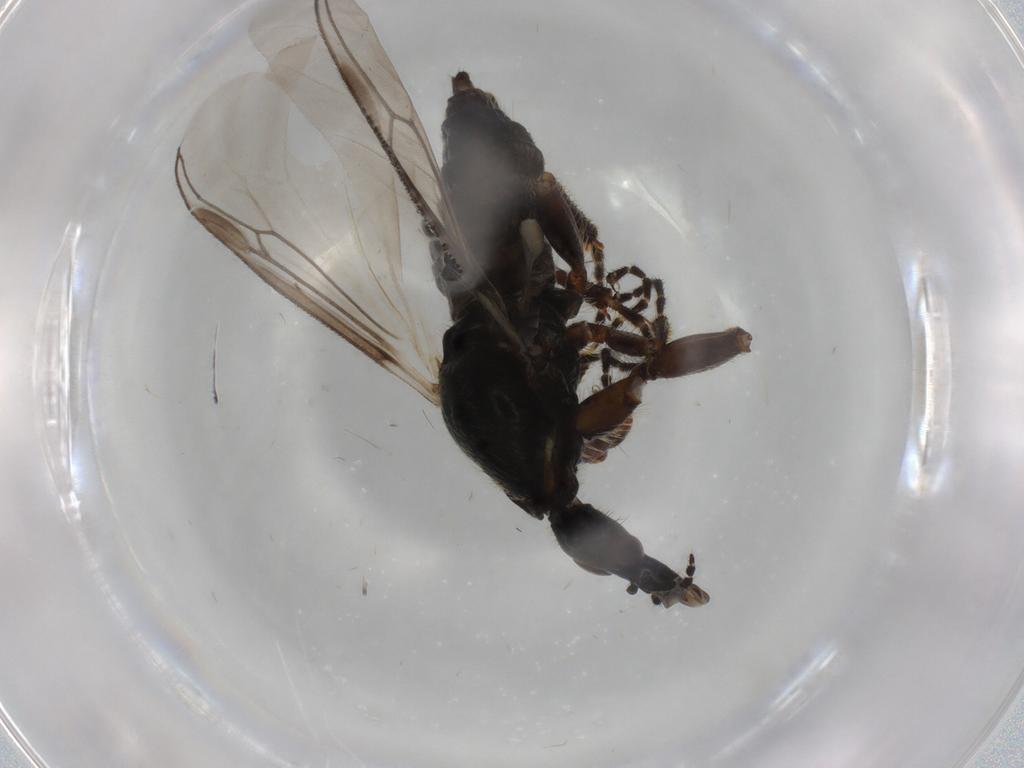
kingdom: Animalia
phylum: Arthropoda
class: Insecta
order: Diptera
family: Bibionidae
